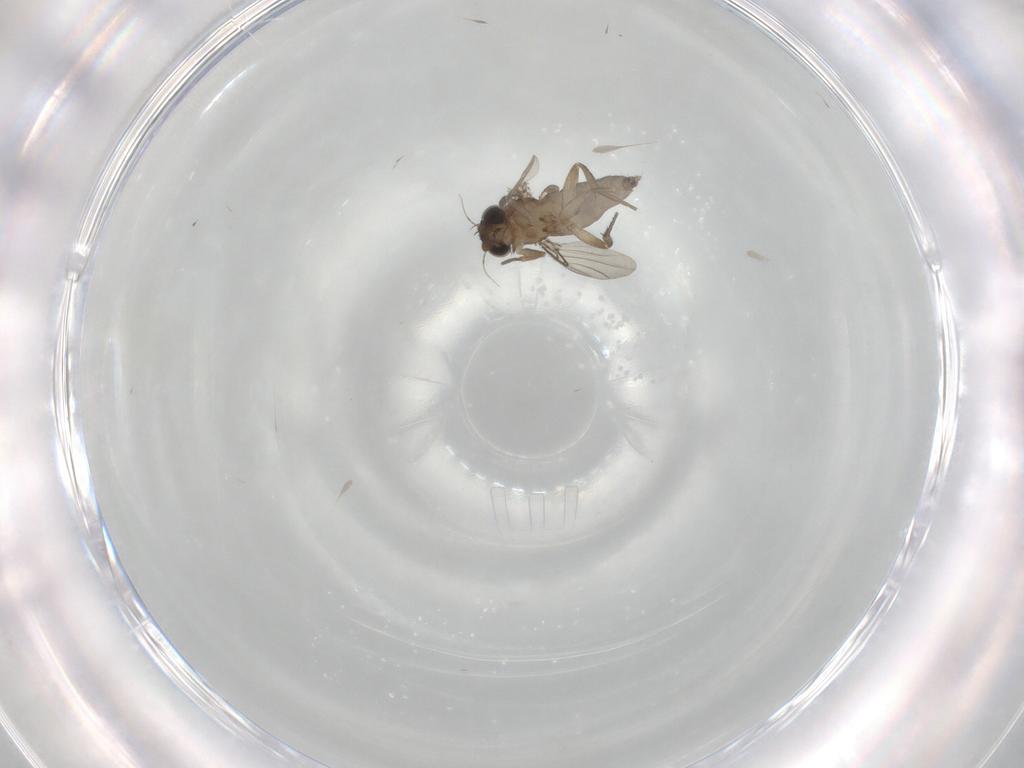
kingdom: Animalia
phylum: Arthropoda
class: Insecta
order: Diptera
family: Phoridae
